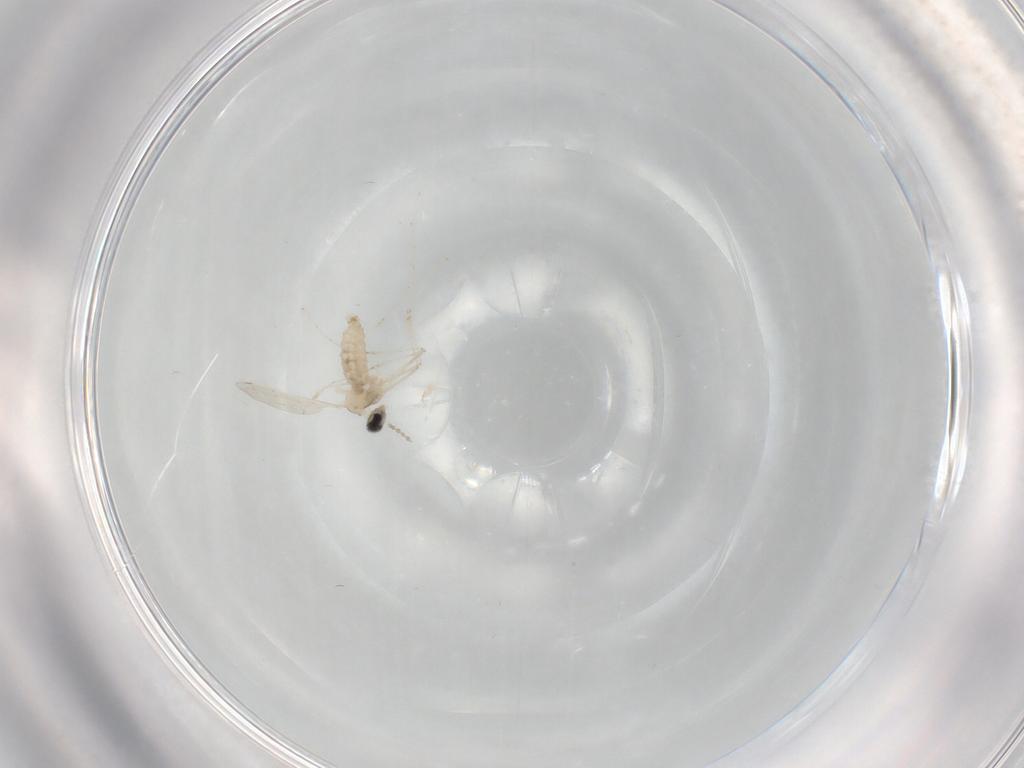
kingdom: Animalia
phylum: Arthropoda
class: Insecta
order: Diptera
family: Keroplatidae
